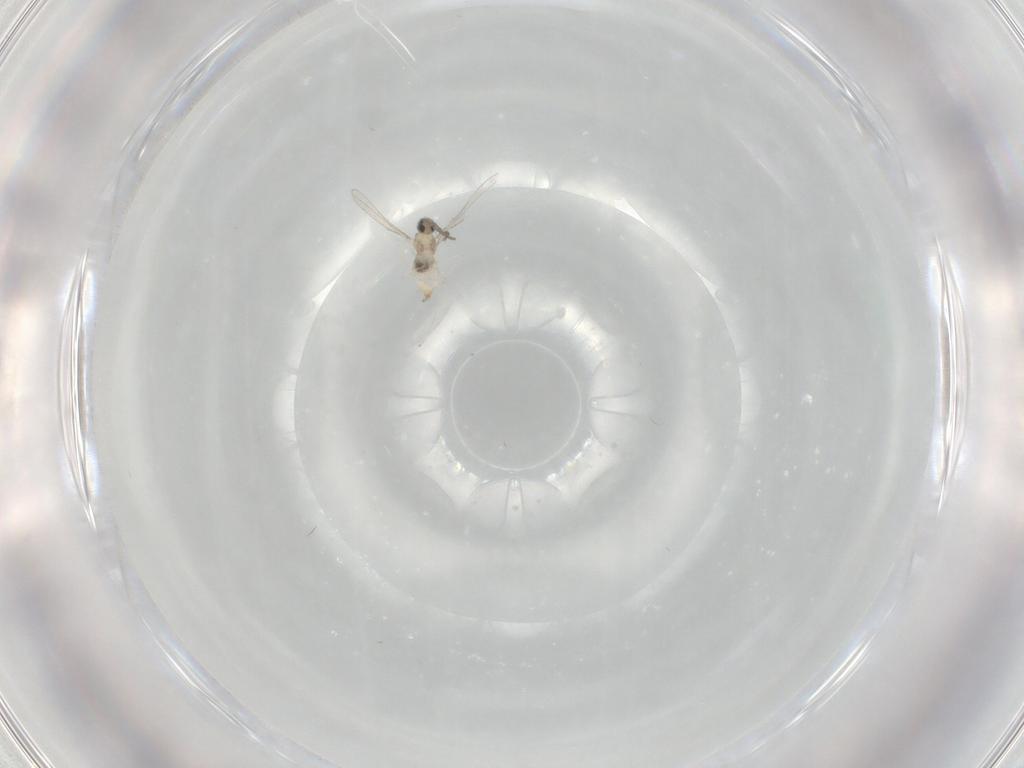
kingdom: Animalia
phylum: Arthropoda
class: Insecta
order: Diptera
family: Cecidomyiidae
